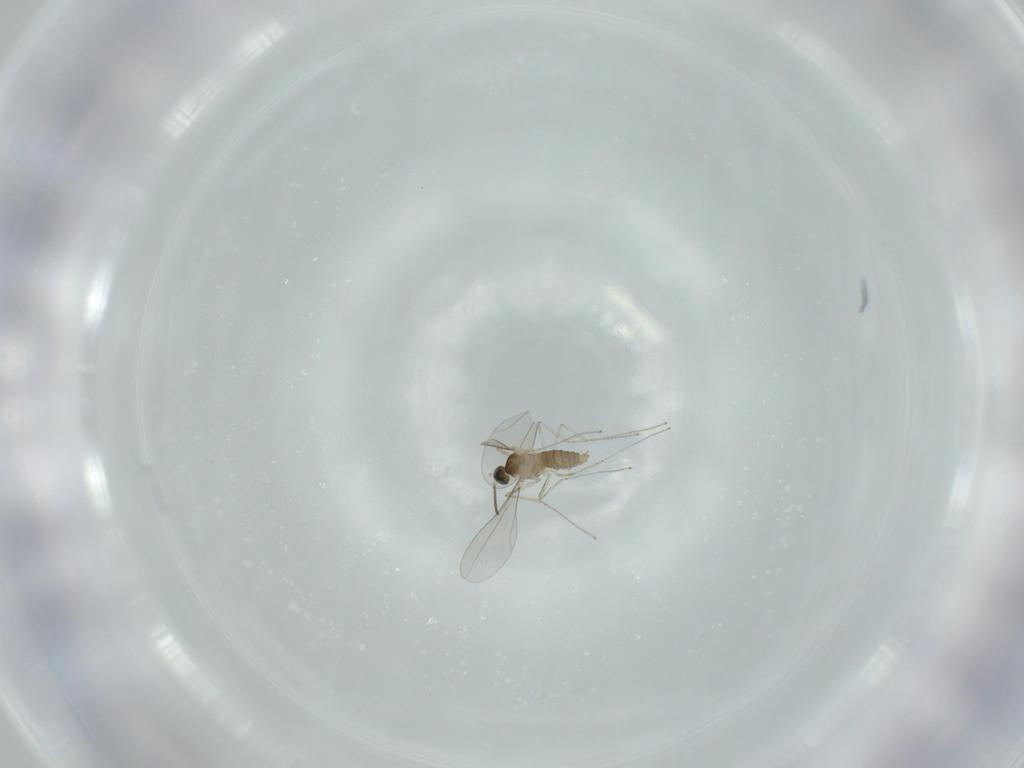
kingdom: Animalia
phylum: Arthropoda
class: Insecta
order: Diptera
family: Cecidomyiidae
